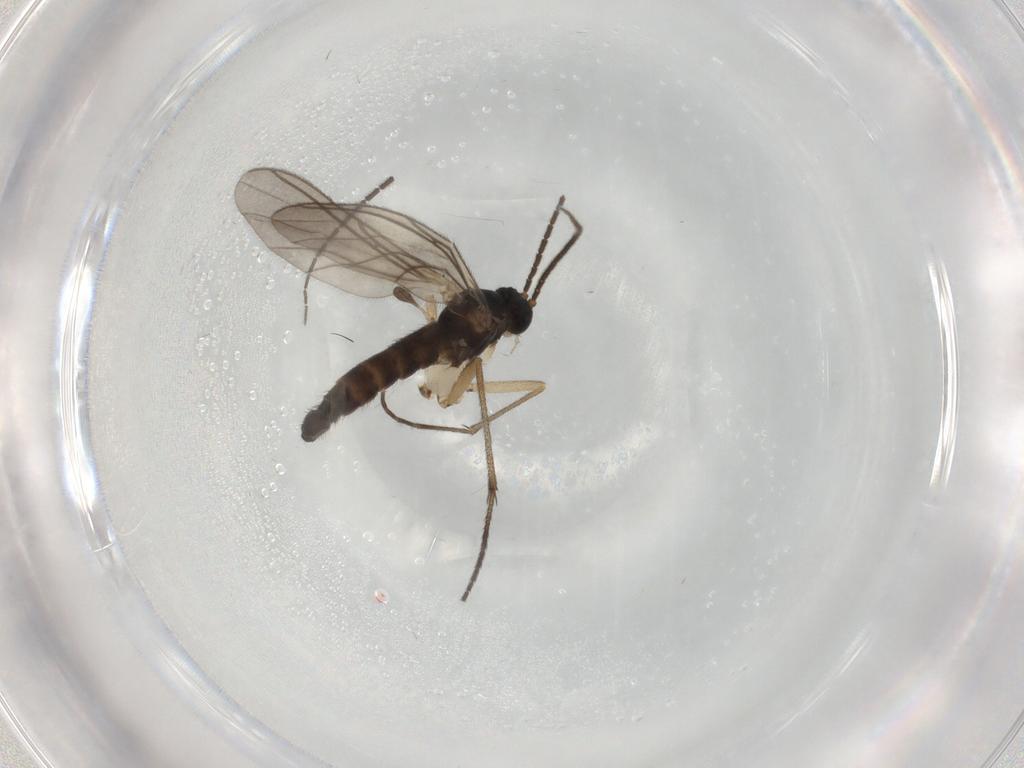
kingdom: Animalia
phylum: Arthropoda
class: Insecta
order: Diptera
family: Sciaridae
